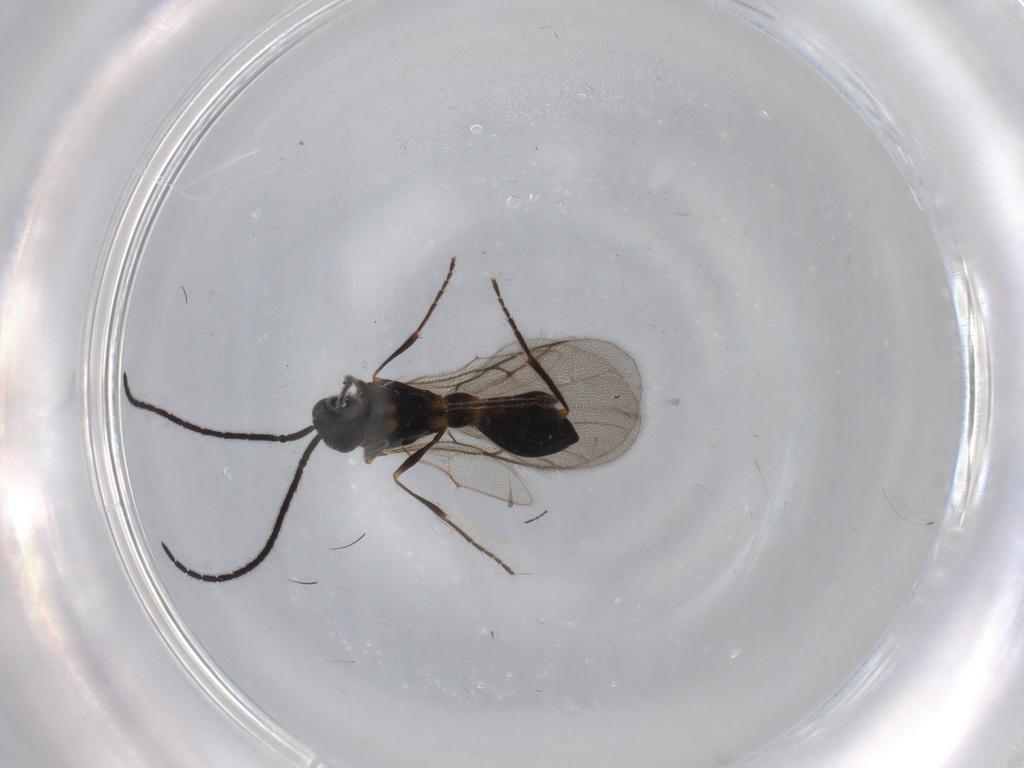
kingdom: Animalia
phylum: Arthropoda
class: Insecta
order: Hymenoptera
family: Diapriidae
